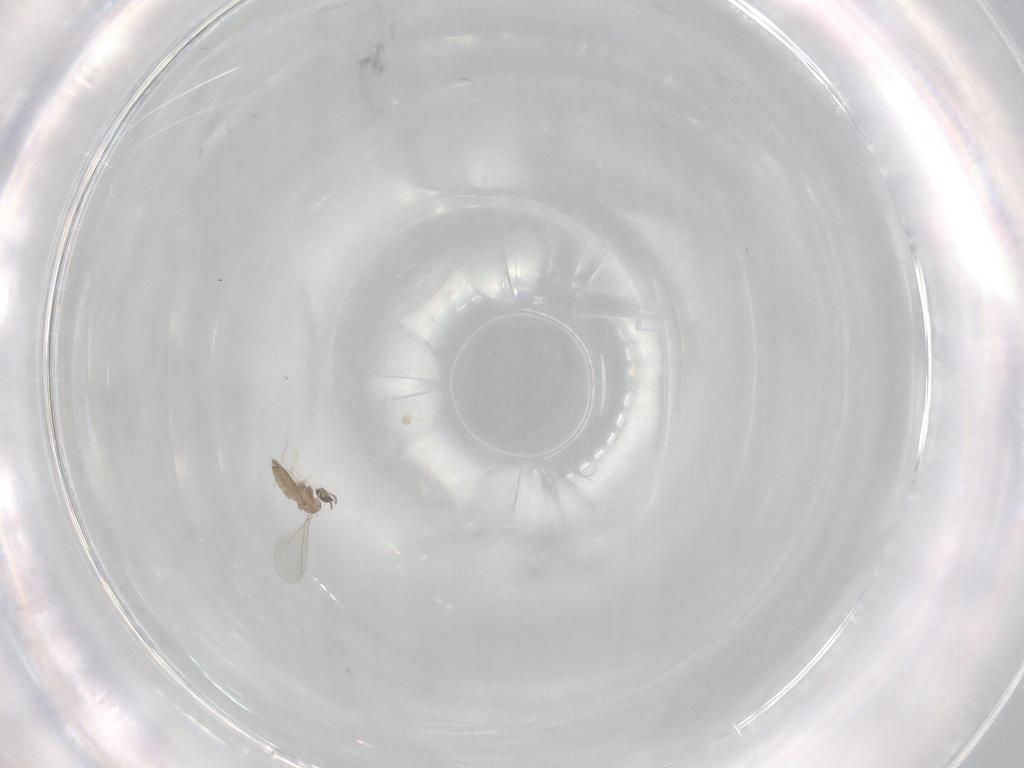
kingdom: Animalia
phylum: Arthropoda
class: Insecta
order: Diptera
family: Cecidomyiidae
